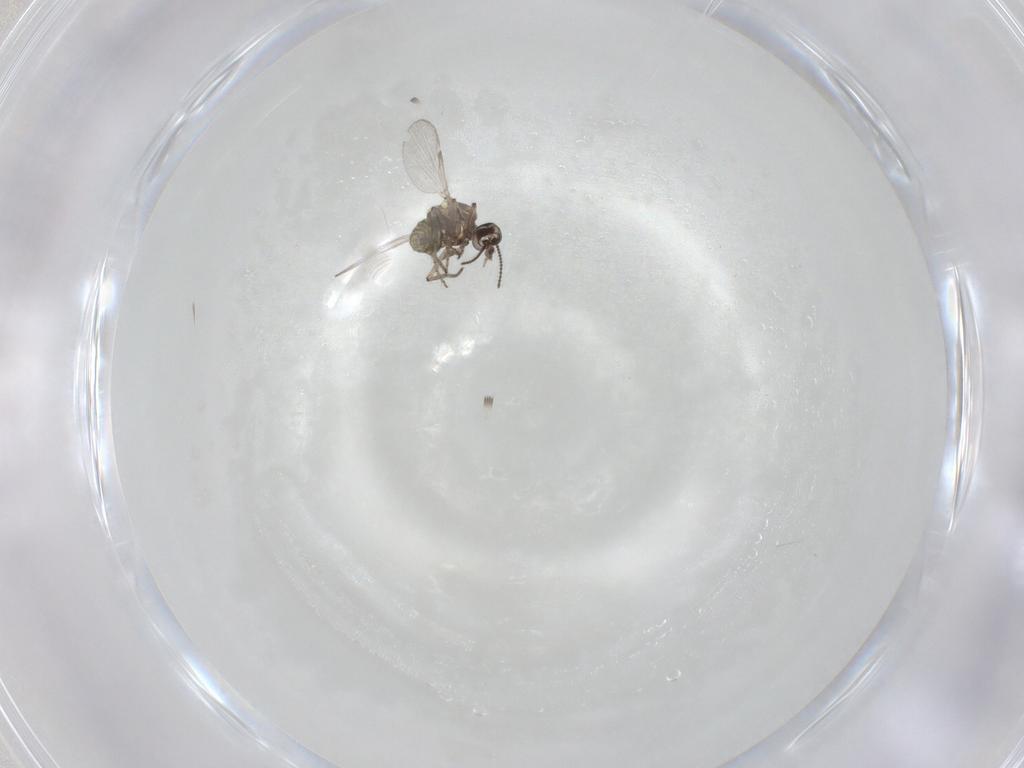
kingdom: Animalia
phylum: Arthropoda
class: Insecta
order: Diptera
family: Ceratopogonidae
